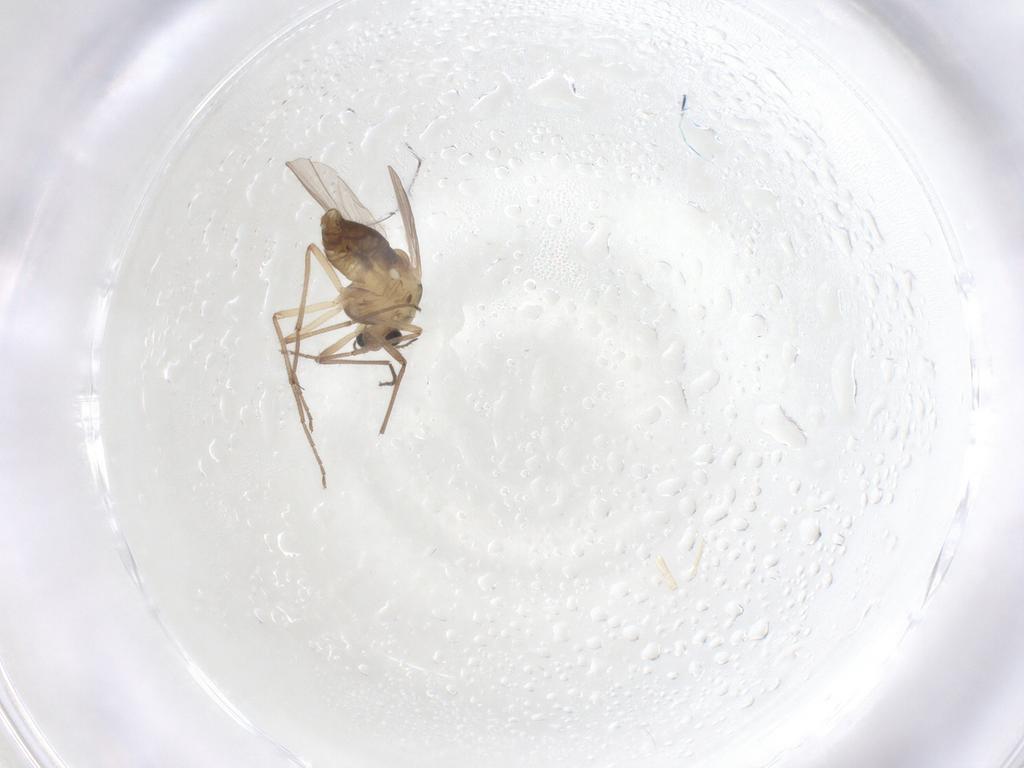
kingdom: Animalia
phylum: Arthropoda
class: Insecta
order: Diptera
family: Chironomidae
